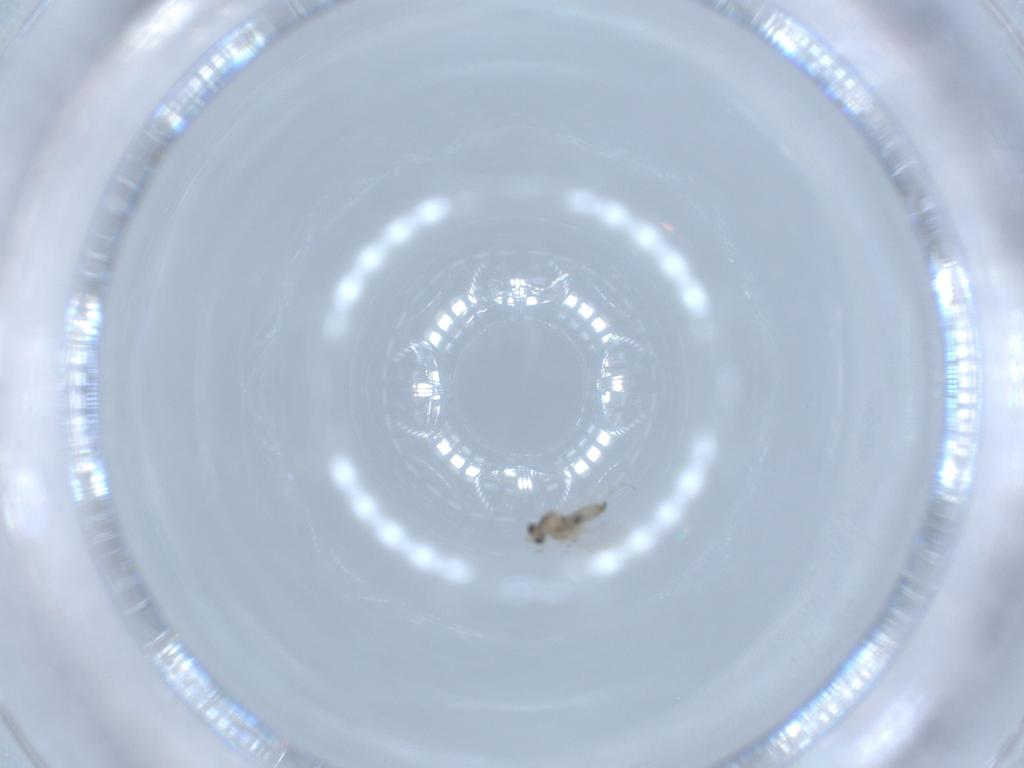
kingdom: Animalia
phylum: Arthropoda
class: Insecta
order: Diptera
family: Cecidomyiidae
